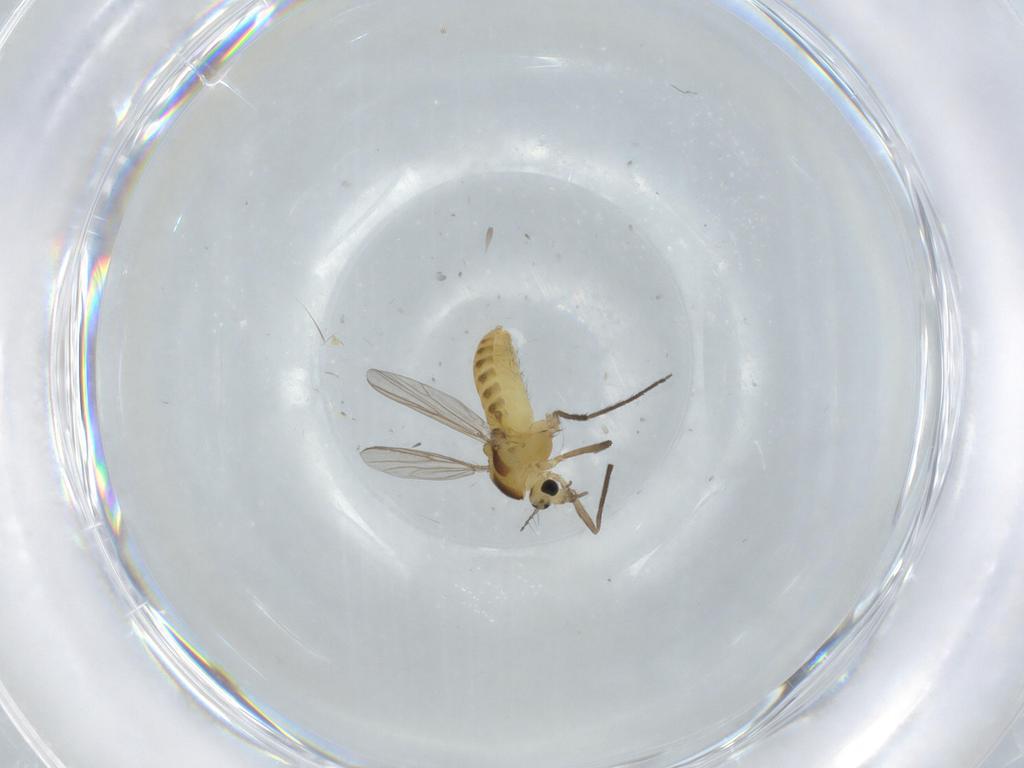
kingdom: Animalia
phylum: Arthropoda
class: Insecta
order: Diptera
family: Chironomidae
